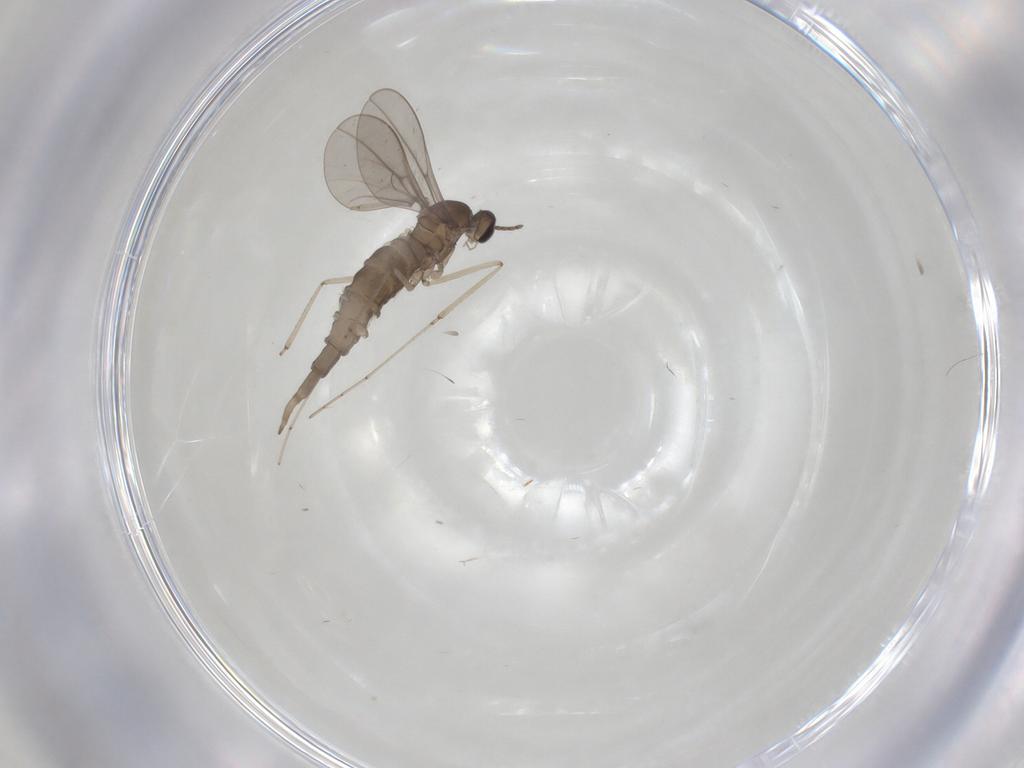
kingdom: Animalia
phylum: Arthropoda
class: Insecta
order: Diptera
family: Cecidomyiidae
